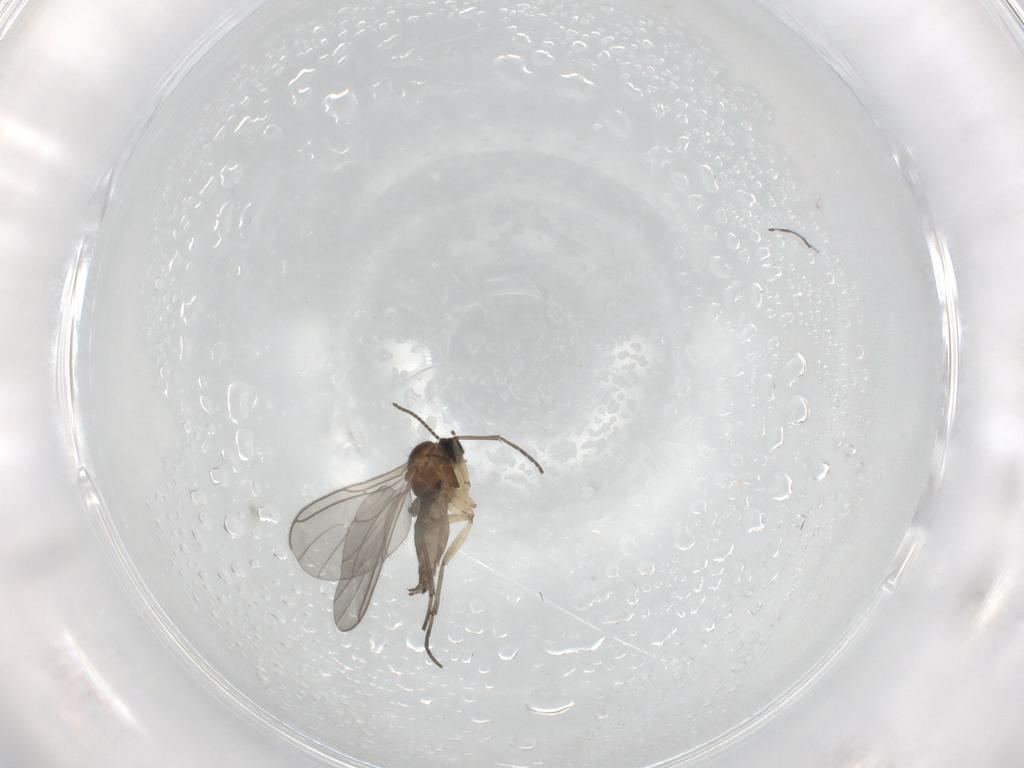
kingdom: Animalia
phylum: Arthropoda
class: Insecta
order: Diptera
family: Sciaridae
